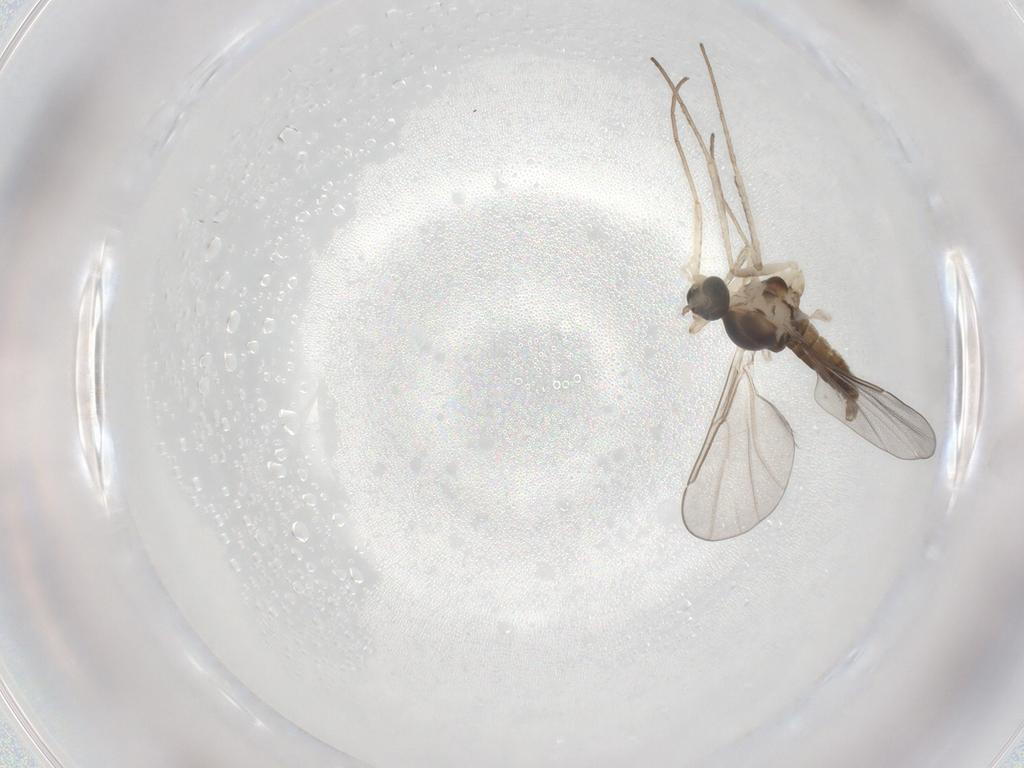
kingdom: Animalia
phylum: Arthropoda
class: Insecta
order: Diptera
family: Cecidomyiidae
